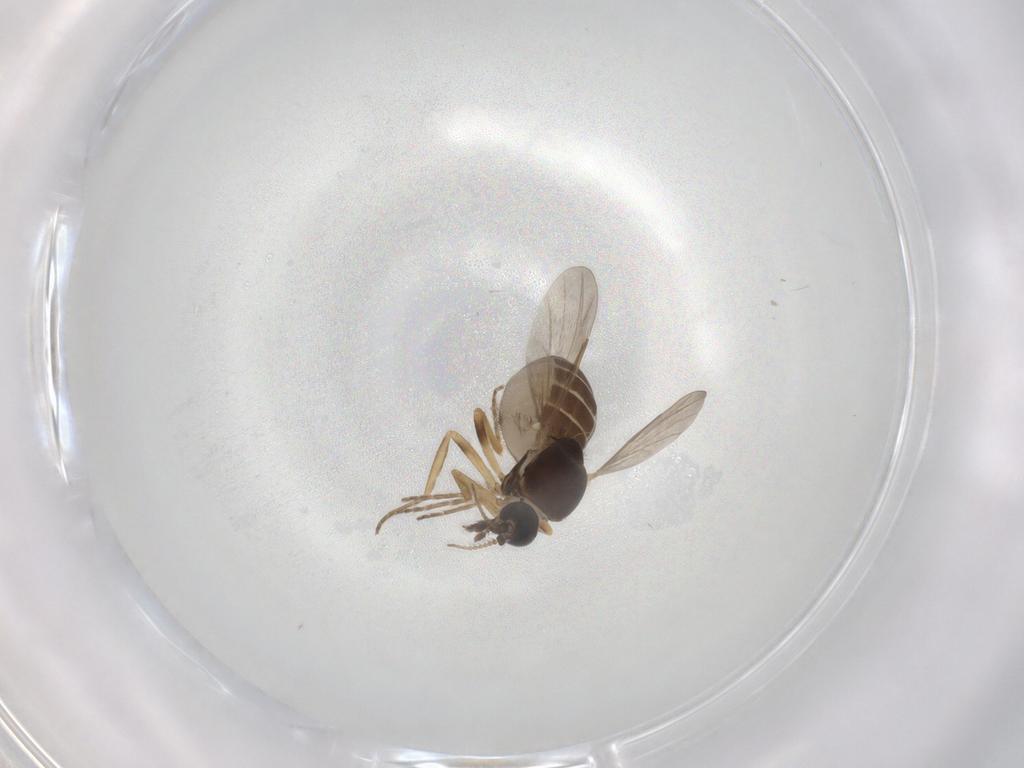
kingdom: Animalia
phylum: Arthropoda
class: Insecta
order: Diptera
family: Ceratopogonidae
